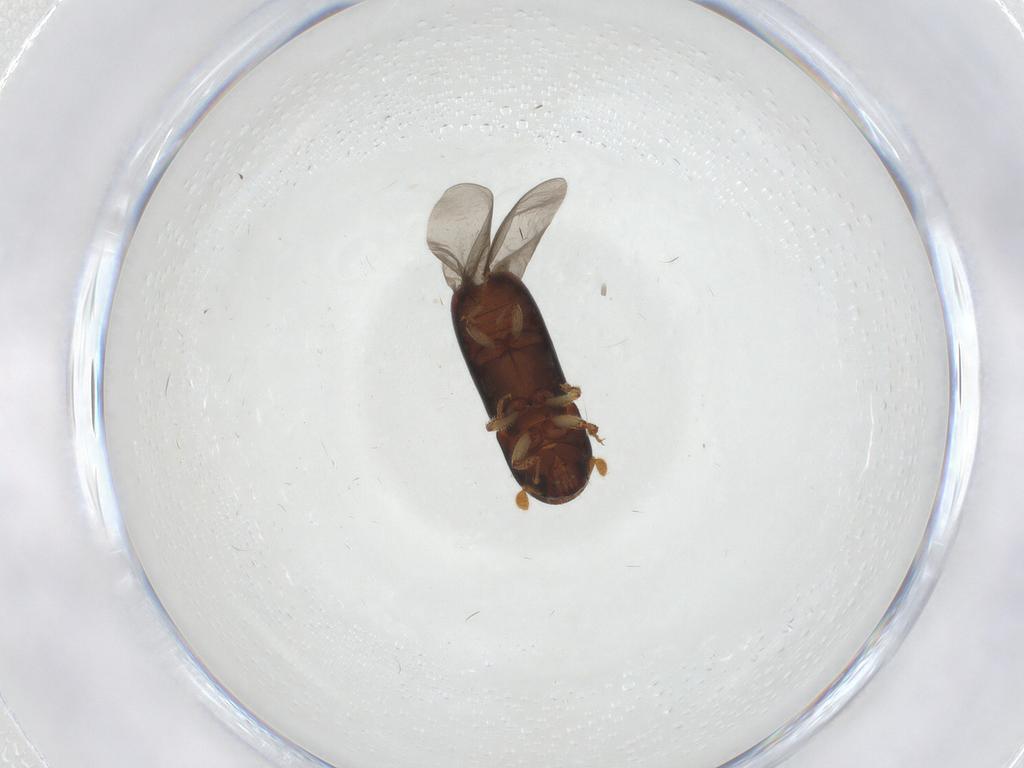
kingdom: Animalia
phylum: Arthropoda
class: Insecta
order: Coleoptera
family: Curculionidae
